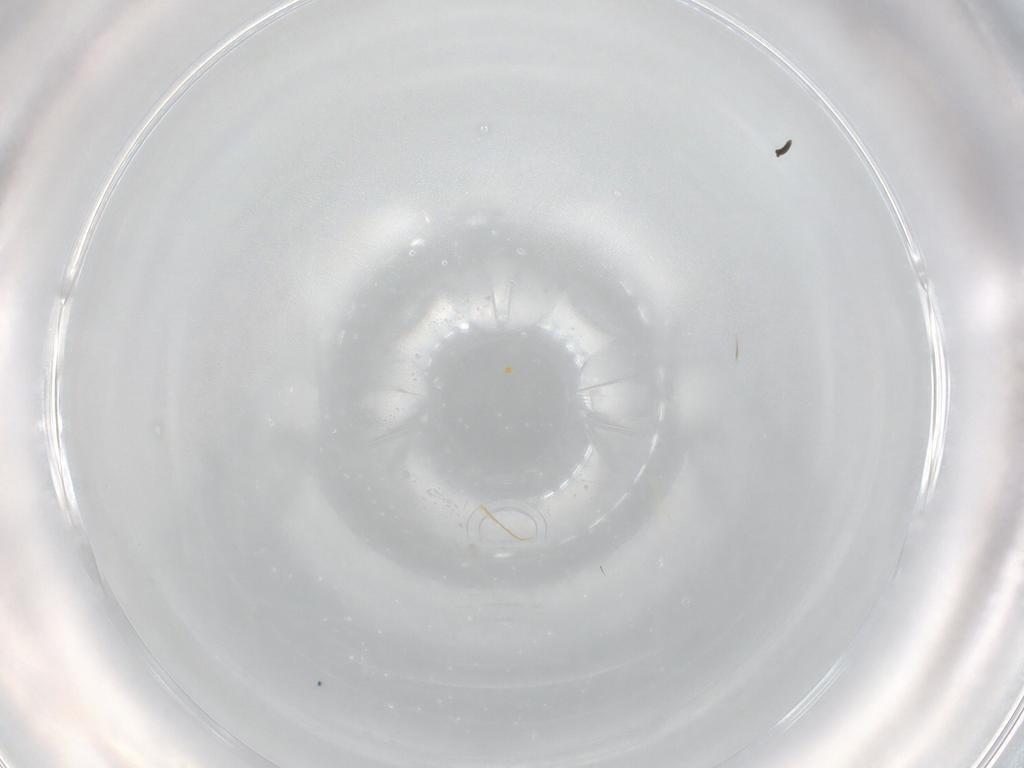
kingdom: Animalia
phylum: Arthropoda
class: Insecta
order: Hymenoptera
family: Scelionidae
